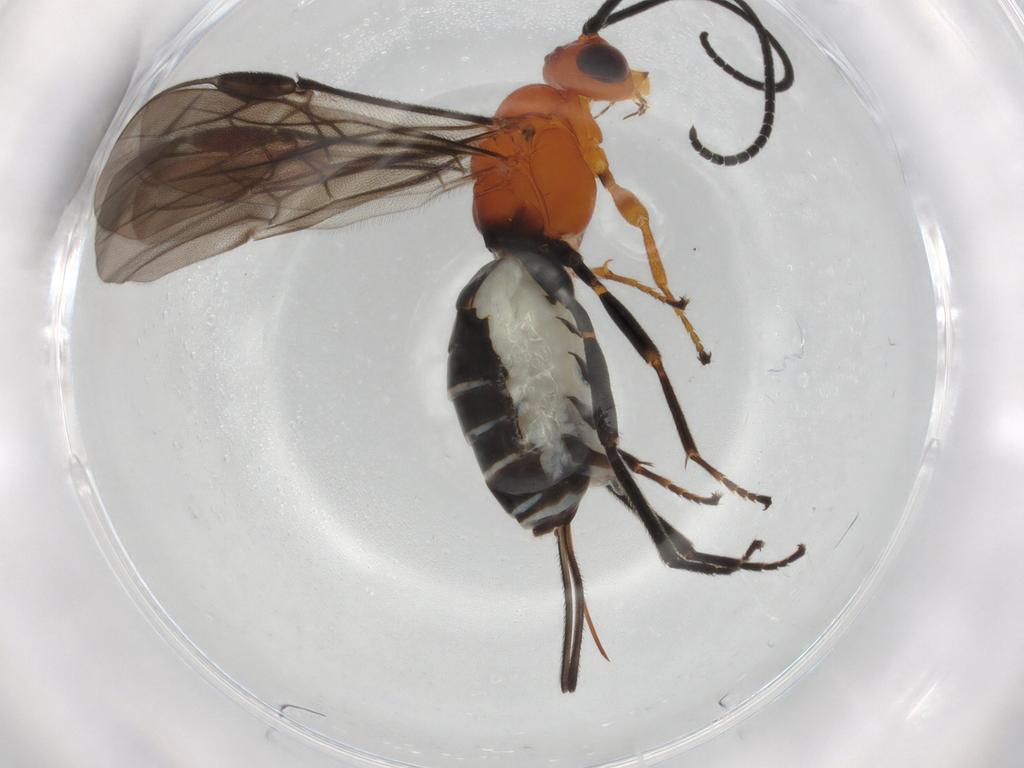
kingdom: Animalia
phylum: Arthropoda
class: Insecta
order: Hymenoptera
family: Braconidae
